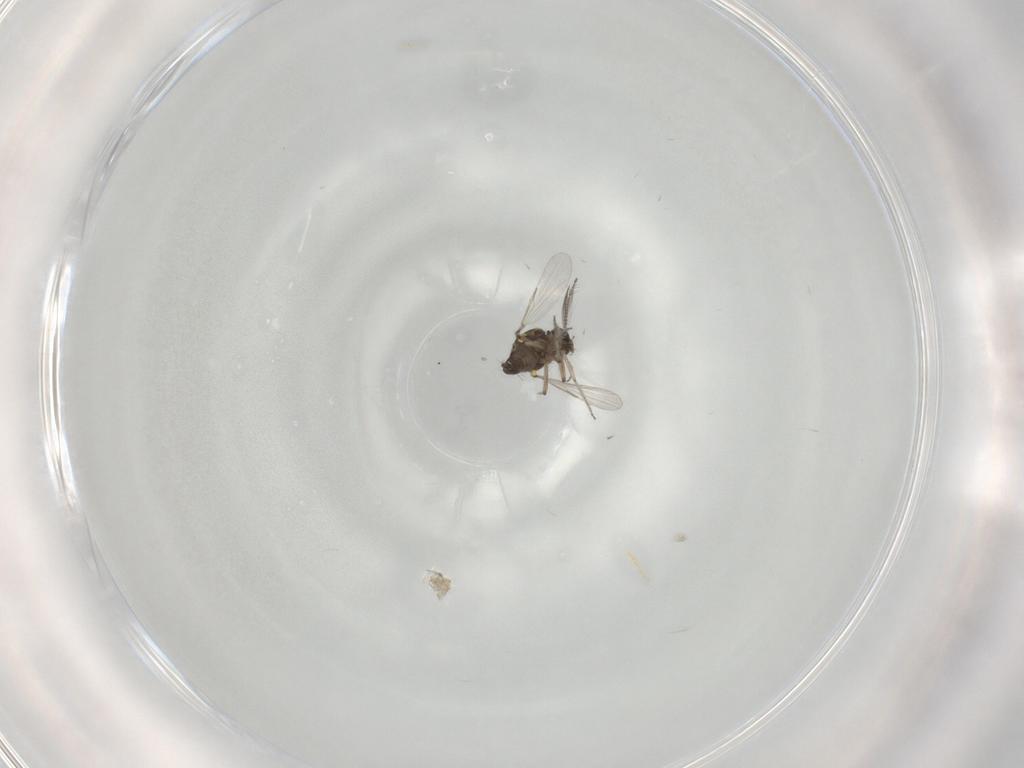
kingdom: Animalia
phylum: Arthropoda
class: Insecta
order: Diptera
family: Ceratopogonidae
